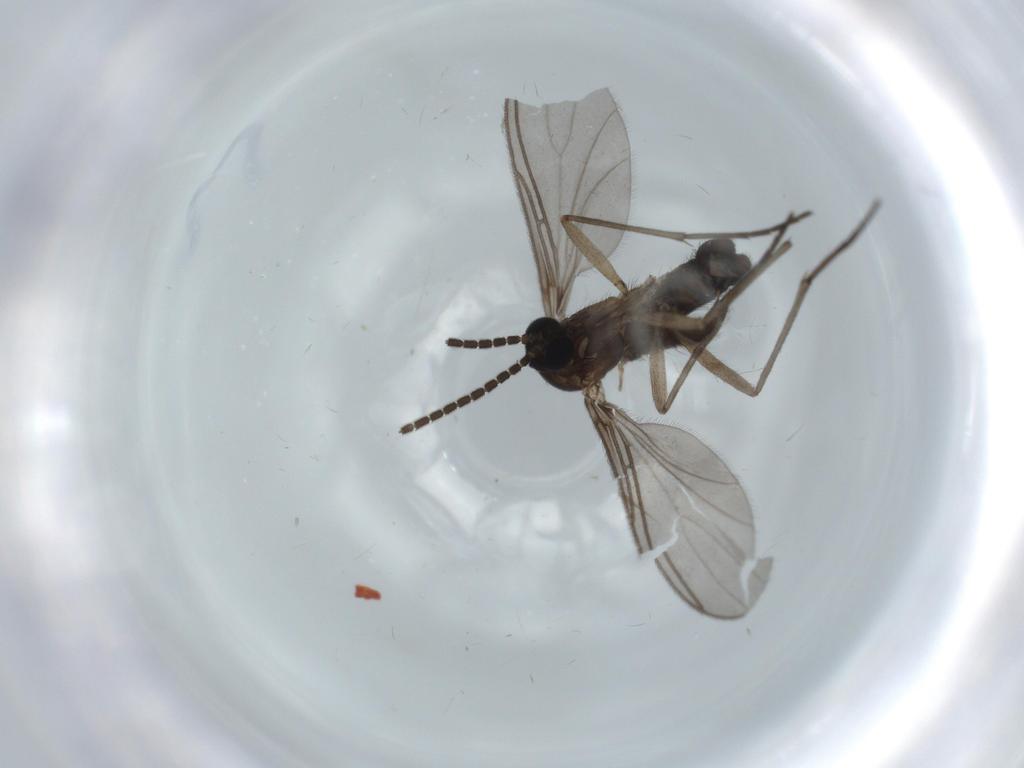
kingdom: Animalia
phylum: Arthropoda
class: Insecta
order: Diptera
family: Sciaridae
